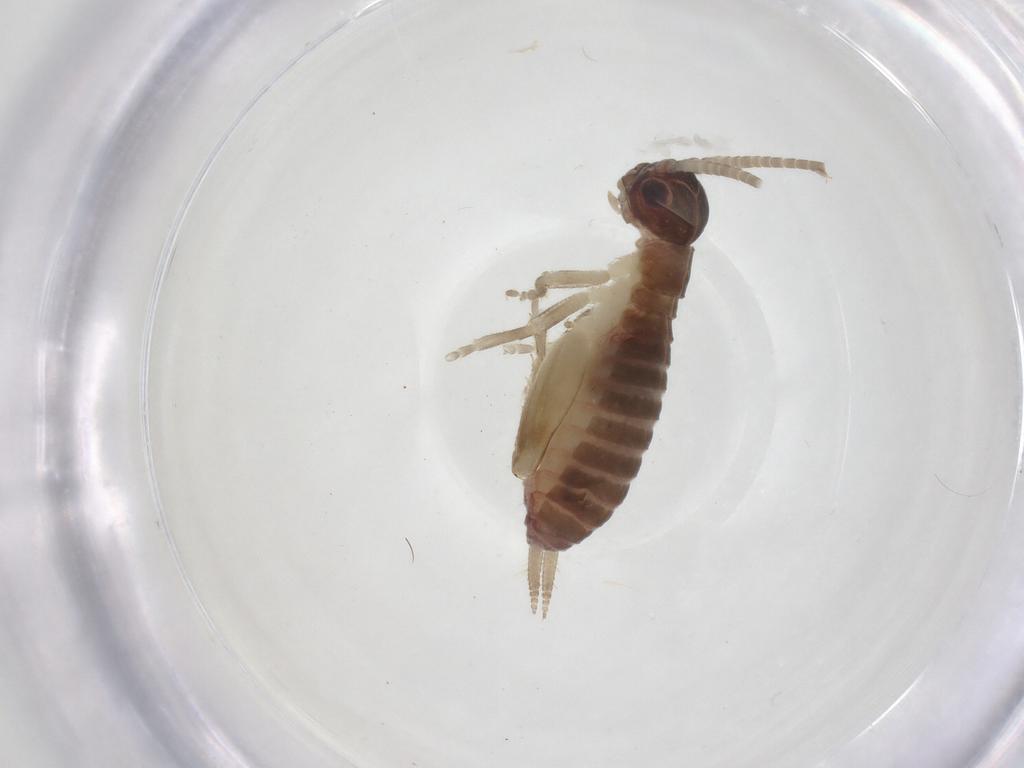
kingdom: Animalia
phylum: Arthropoda
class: Insecta
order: Orthoptera
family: Gryllidae
